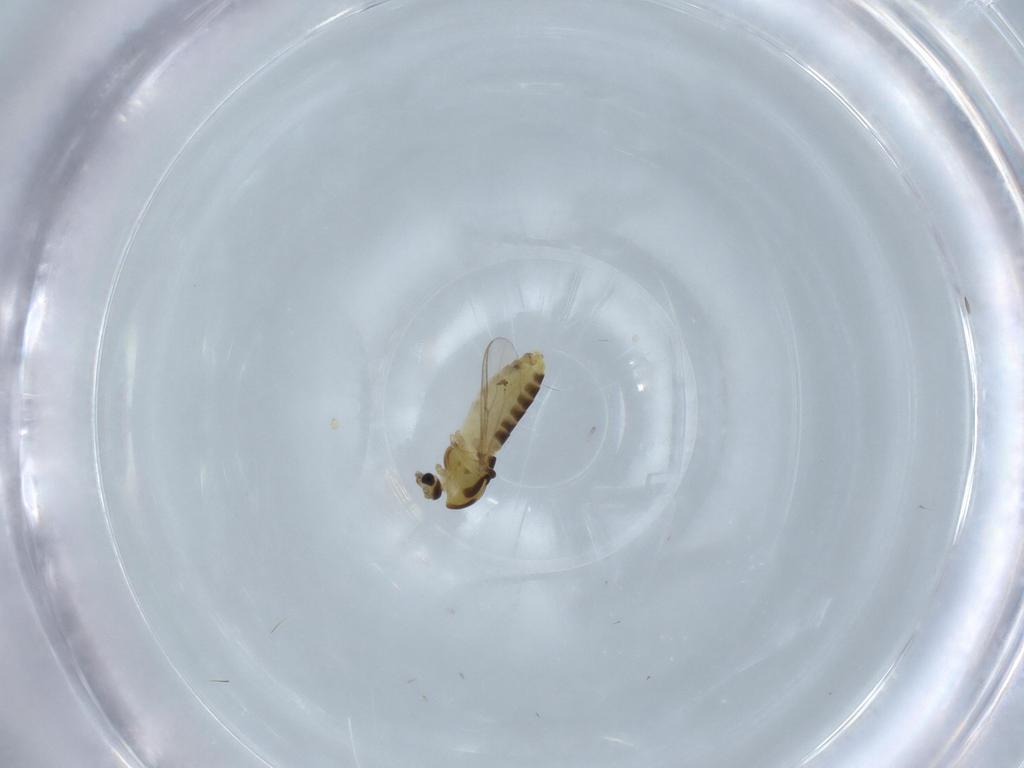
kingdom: Animalia
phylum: Arthropoda
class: Insecta
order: Diptera
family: Chironomidae
